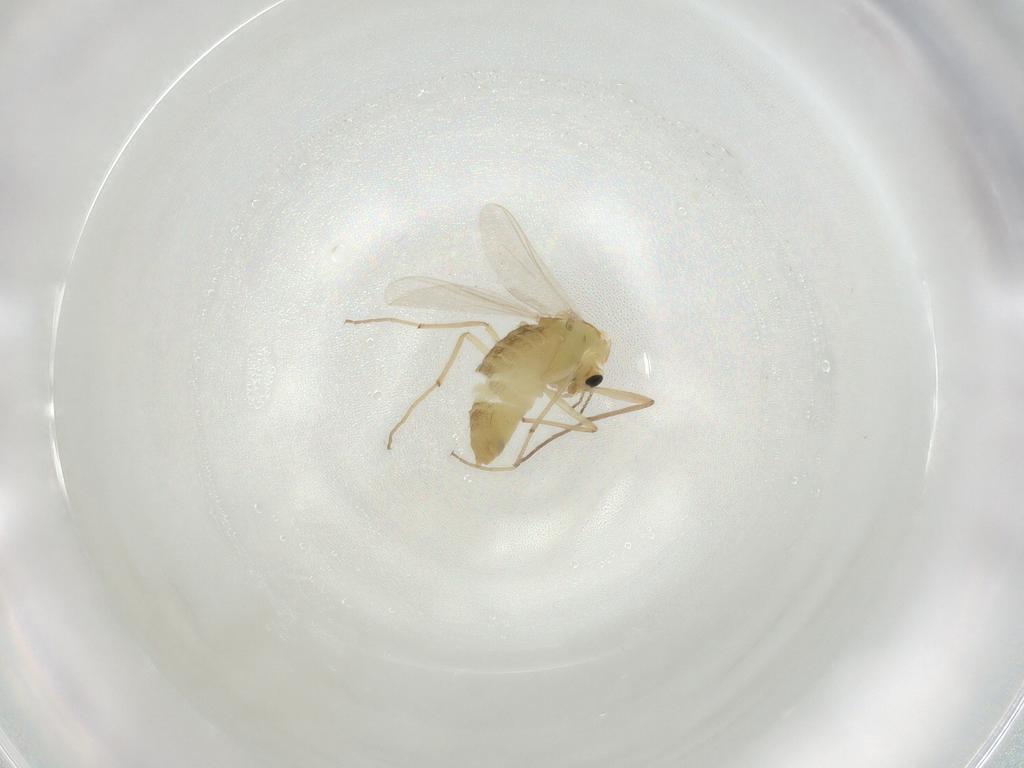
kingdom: Animalia
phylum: Arthropoda
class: Insecta
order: Diptera
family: Chironomidae
